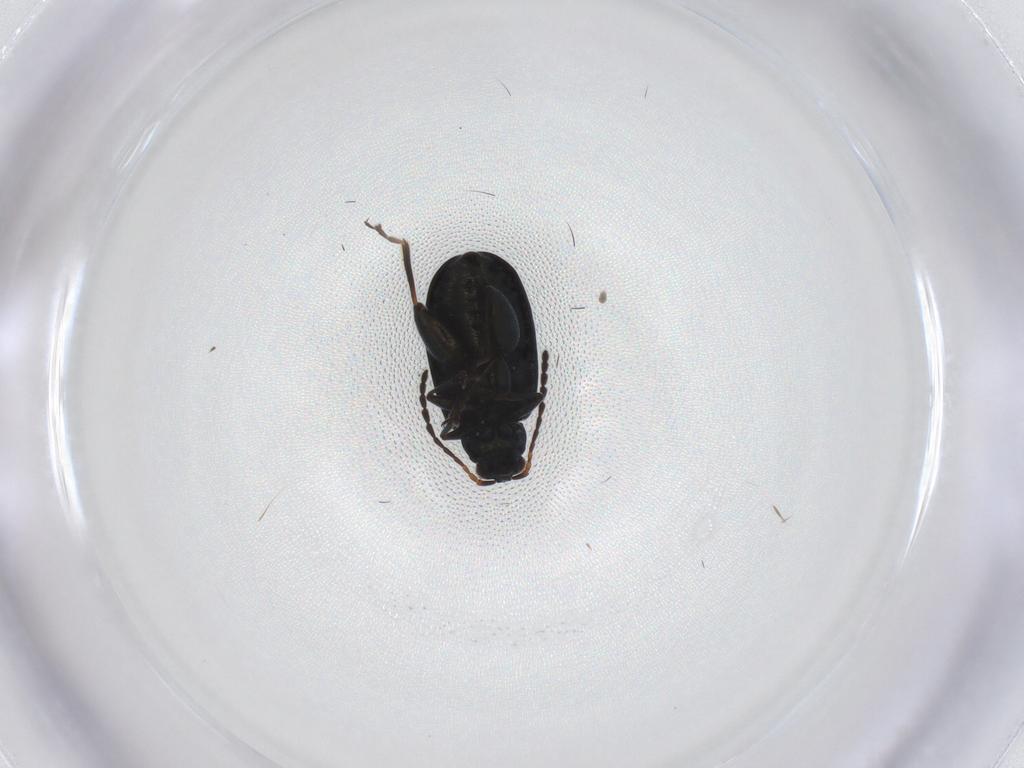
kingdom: Animalia
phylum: Arthropoda
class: Insecta
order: Coleoptera
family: Chrysomelidae
